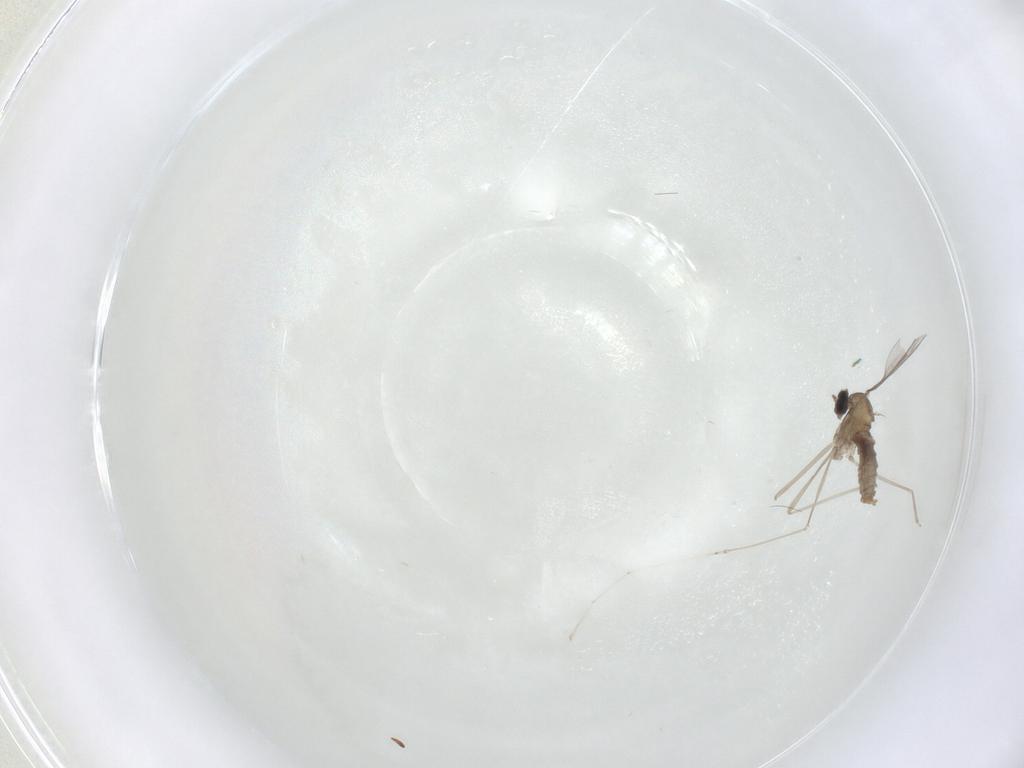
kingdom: Animalia
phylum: Arthropoda
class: Insecta
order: Diptera
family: Cecidomyiidae
